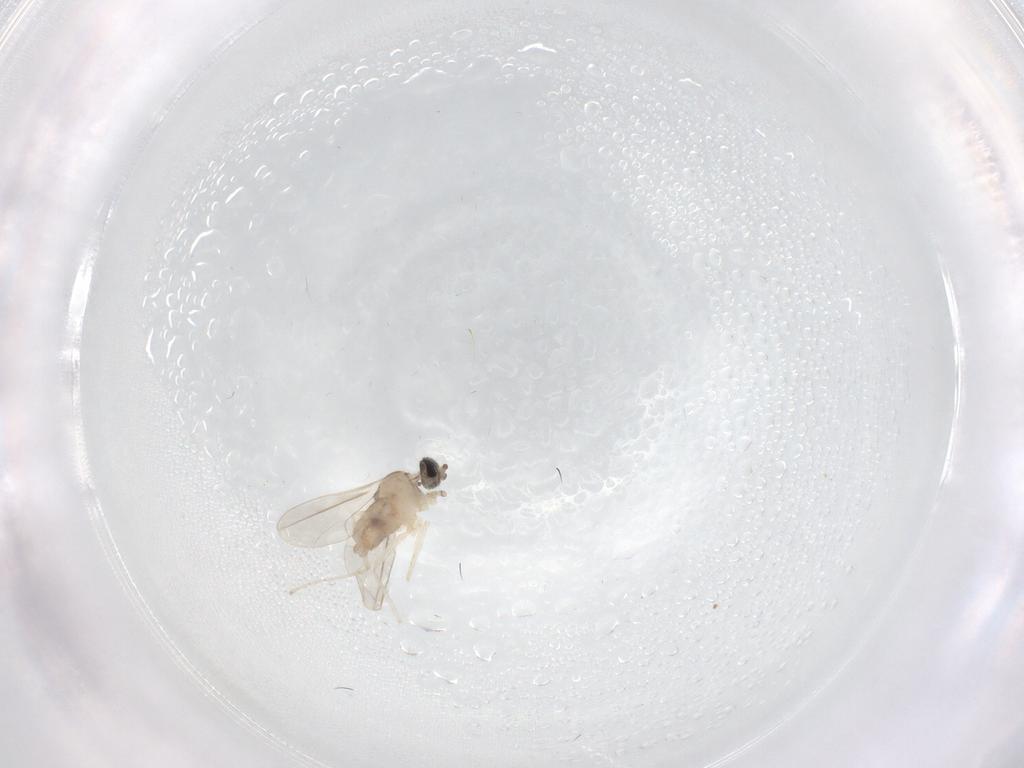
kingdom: Animalia
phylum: Arthropoda
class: Insecta
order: Diptera
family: Cecidomyiidae
